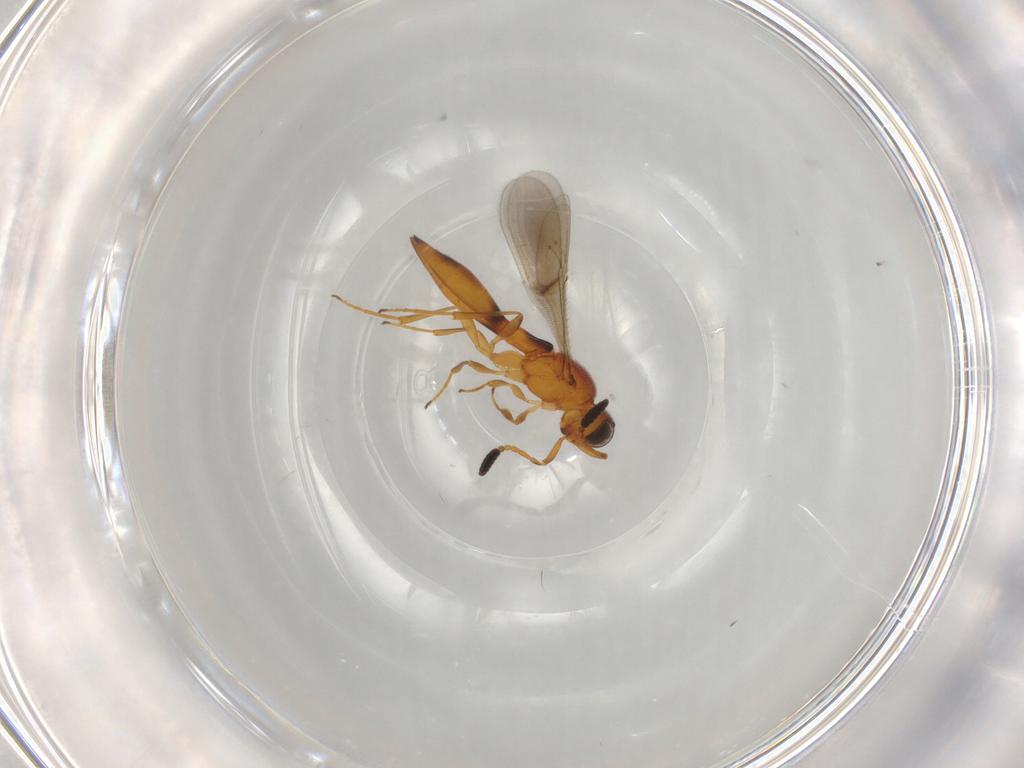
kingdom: Animalia
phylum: Arthropoda
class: Insecta
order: Hymenoptera
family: Scelionidae
